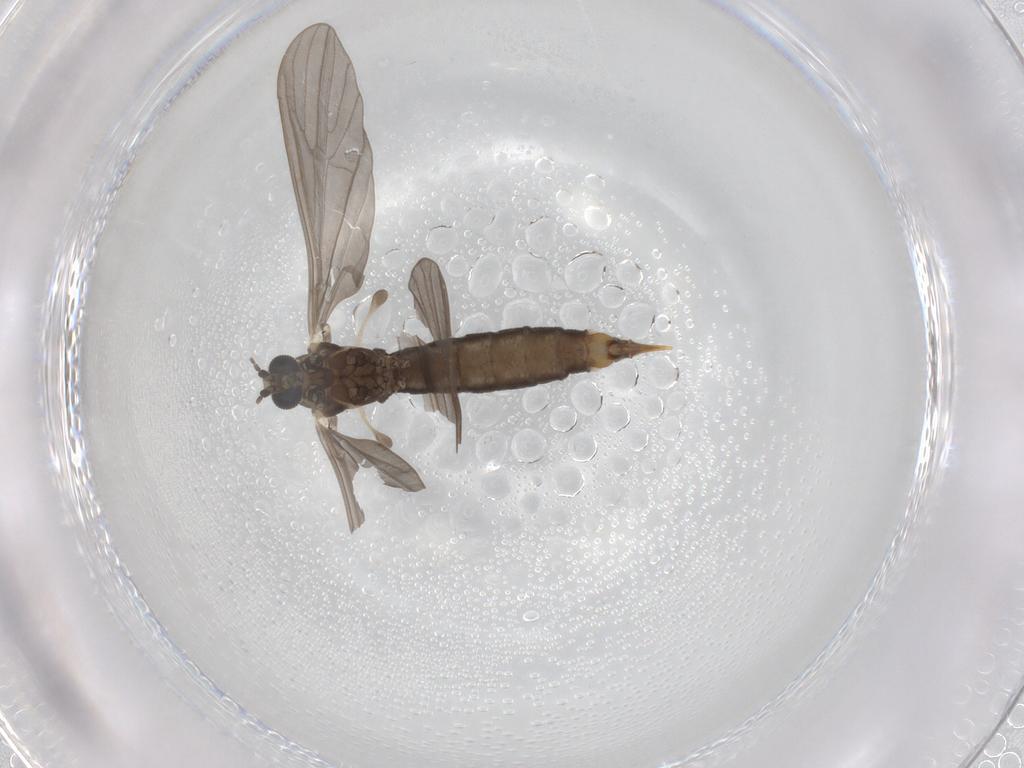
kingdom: Animalia
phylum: Arthropoda
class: Insecta
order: Diptera
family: Limoniidae
